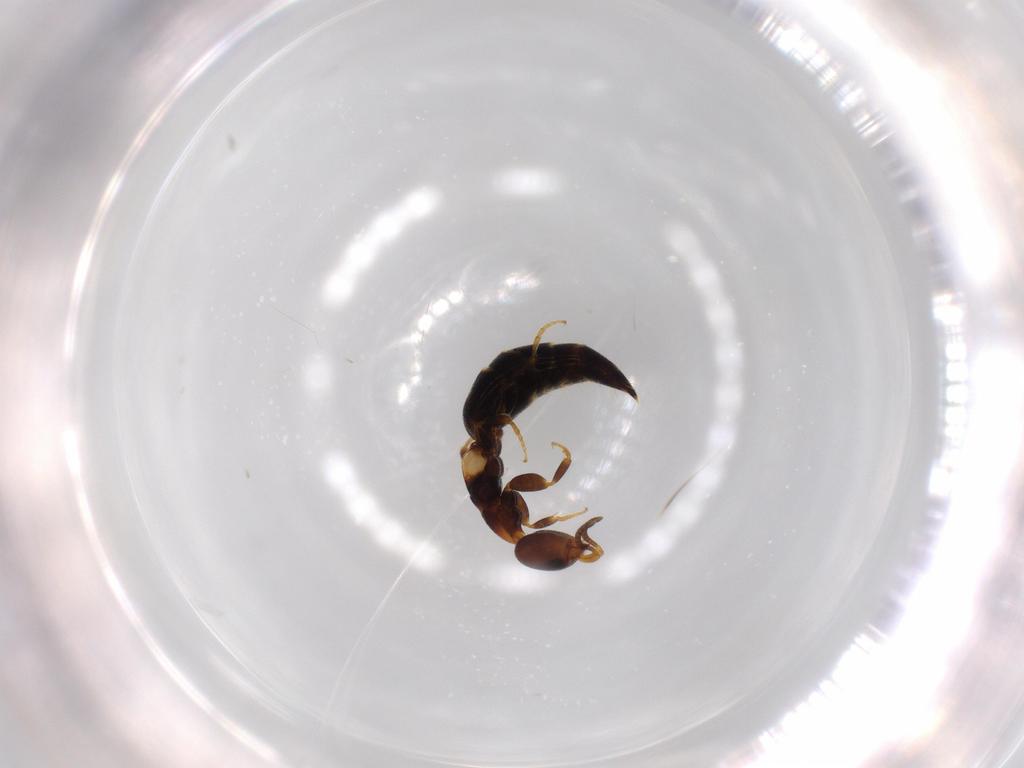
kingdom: Animalia
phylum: Arthropoda
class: Insecta
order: Hymenoptera
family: Bethylidae
